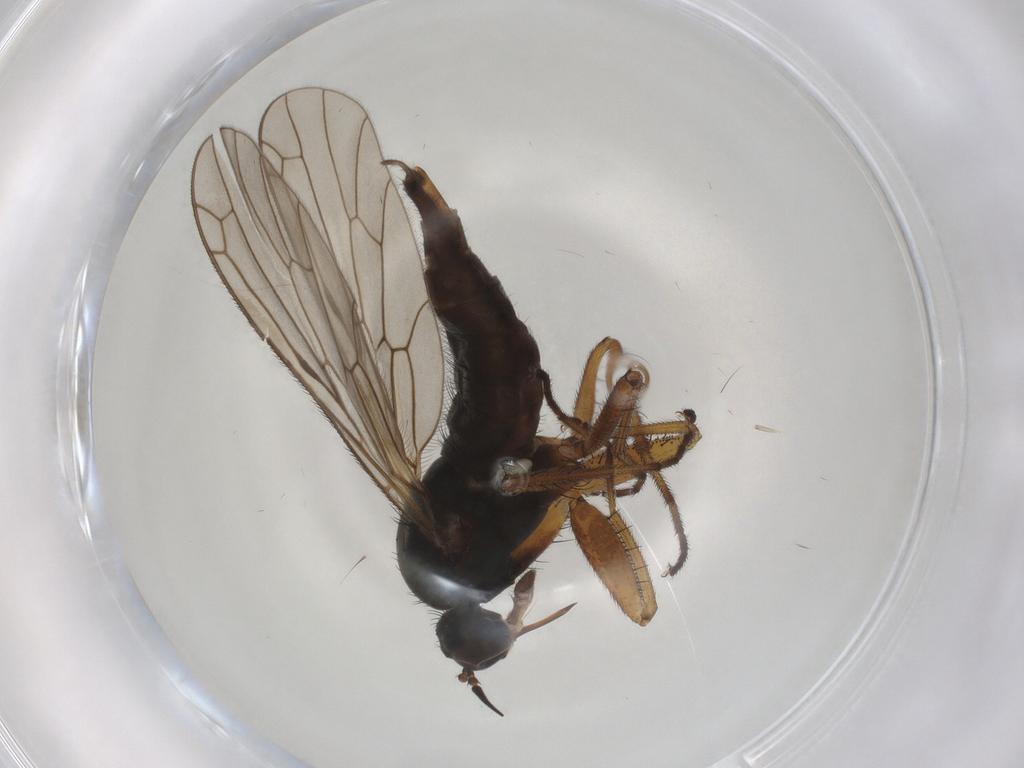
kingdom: Animalia
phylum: Arthropoda
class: Insecta
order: Diptera
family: Empididae
